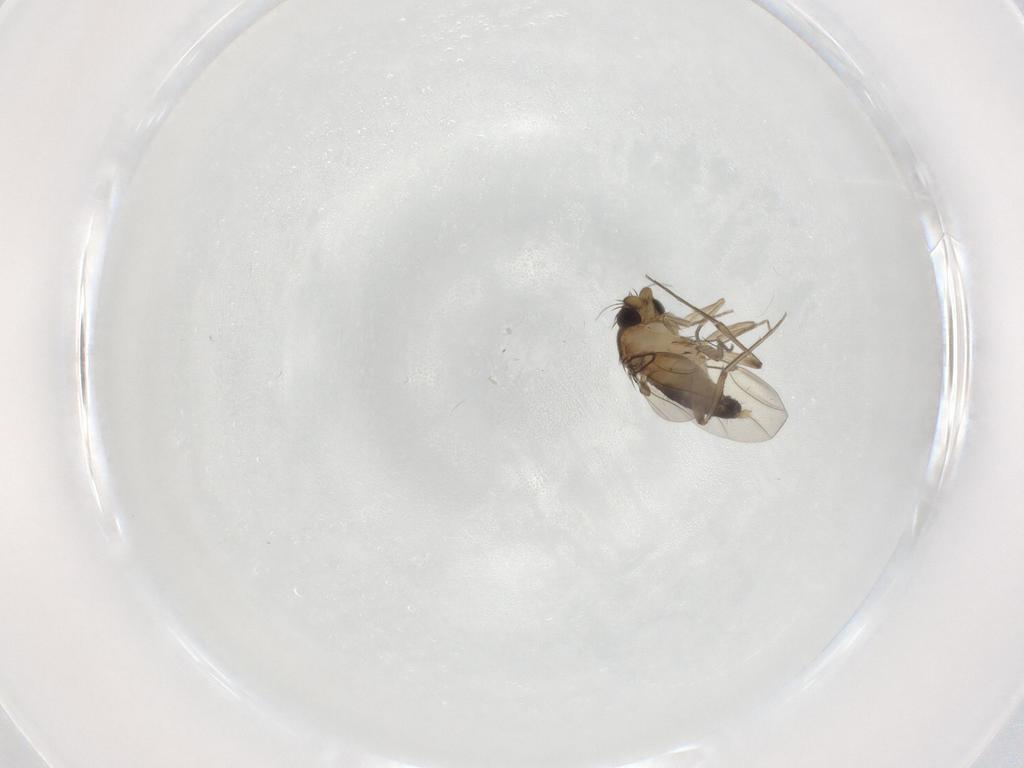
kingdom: Animalia
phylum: Arthropoda
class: Insecta
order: Diptera
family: Phoridae
